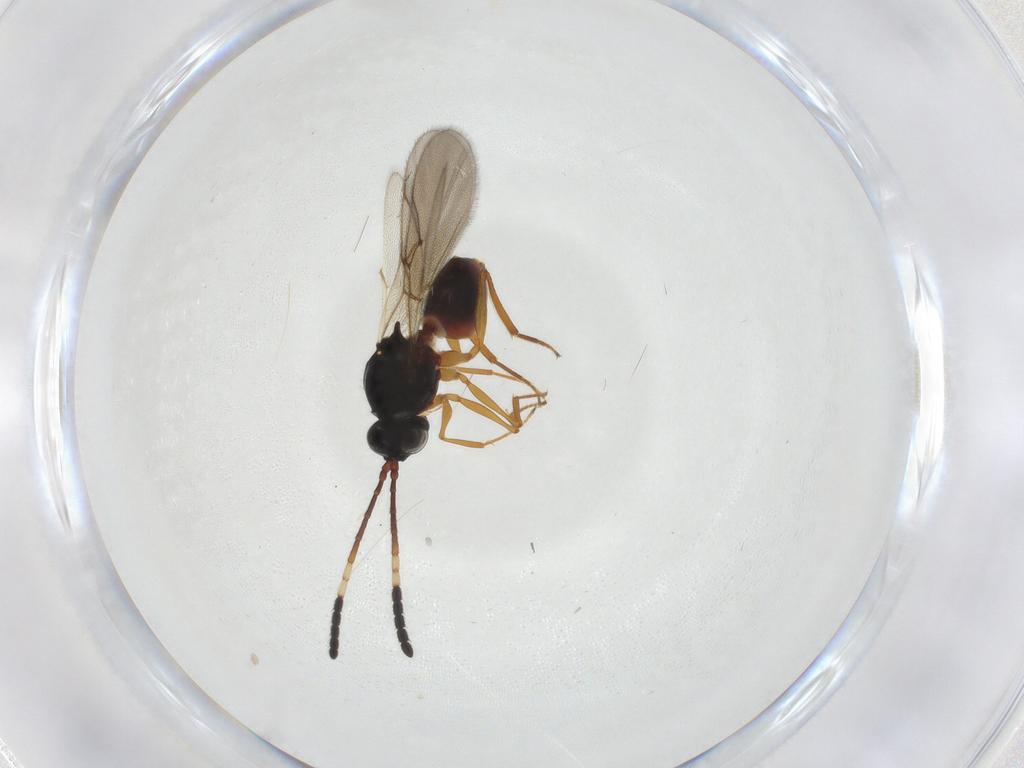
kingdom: Animalia
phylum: Arthropoda
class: Insecta
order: Hymenoptera
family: Figitidae
